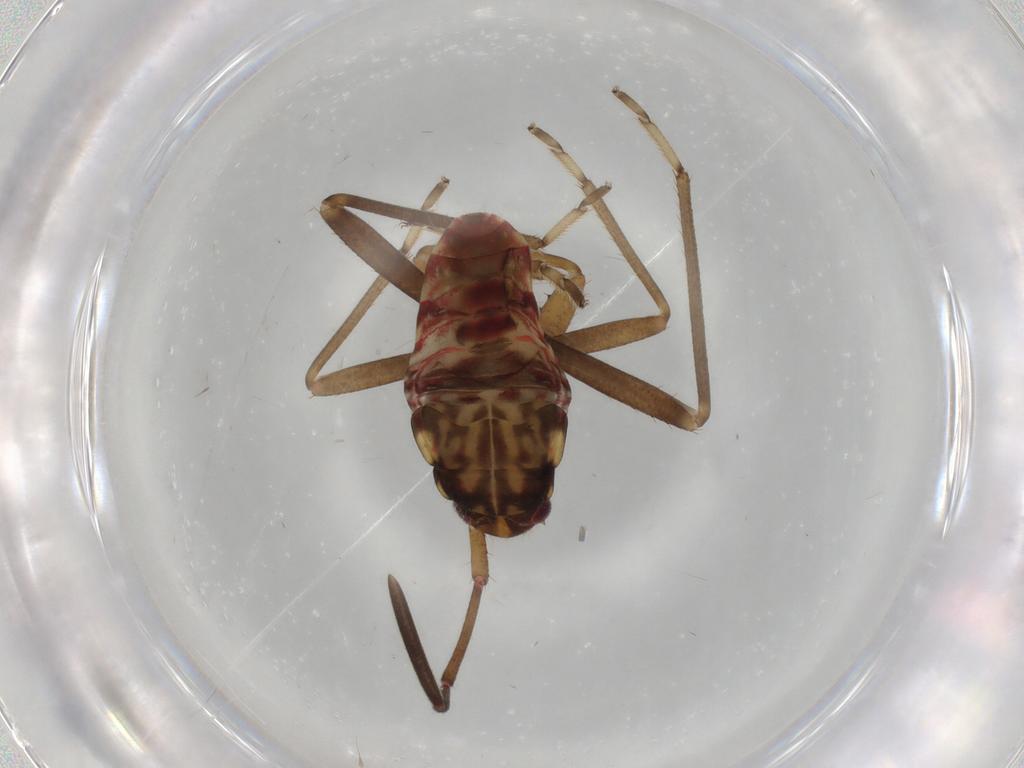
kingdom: Animalia
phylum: Arthropoda
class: Insecta
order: Hemiptera
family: Rhyparochromidae
